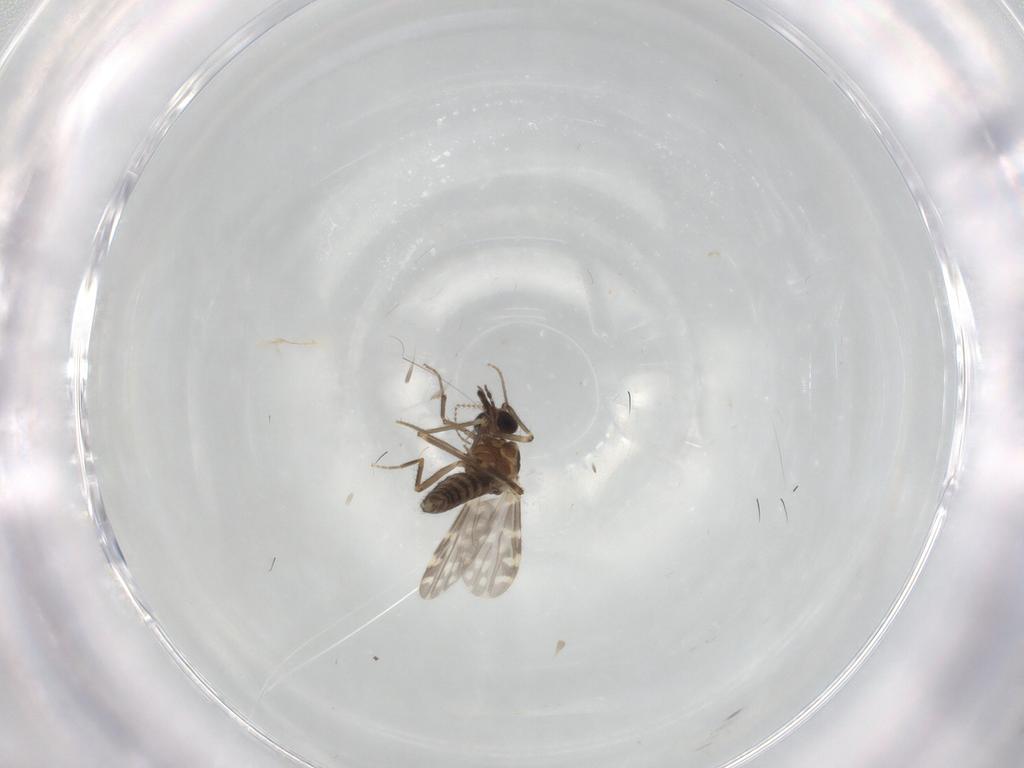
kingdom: Animalia
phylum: Arthropoda
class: Insecta
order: Diptera
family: Ceratopogonidae
